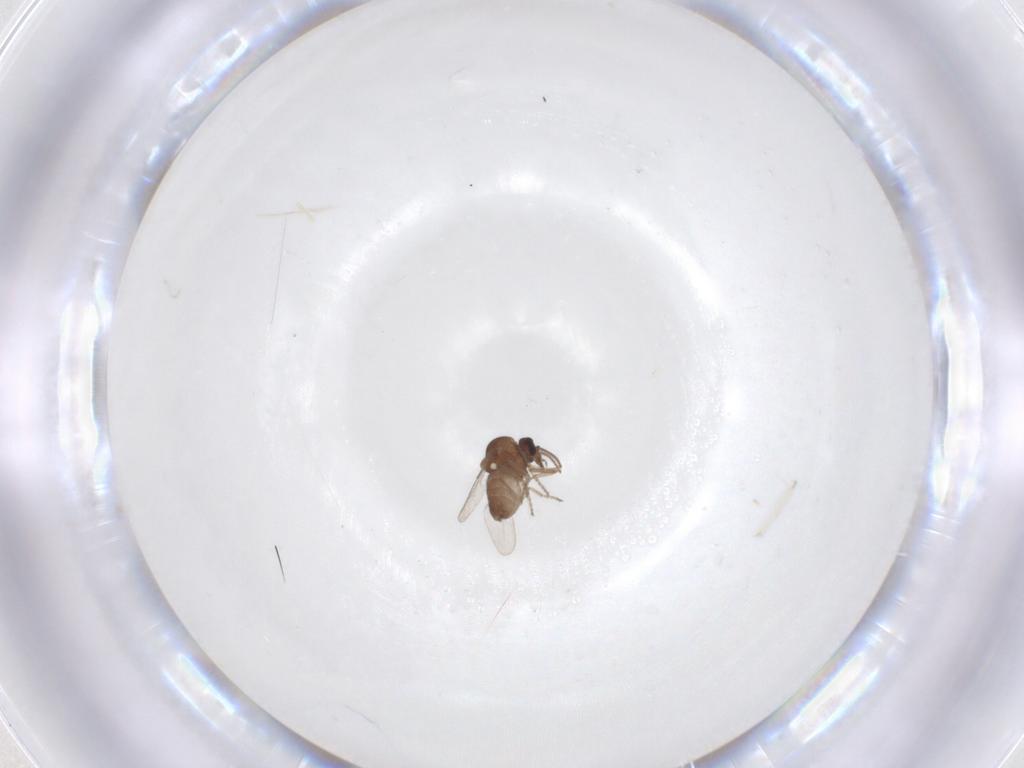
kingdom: Animalia
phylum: Arthropoda
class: Insecta
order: Diptera
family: Ceratopogonidae
